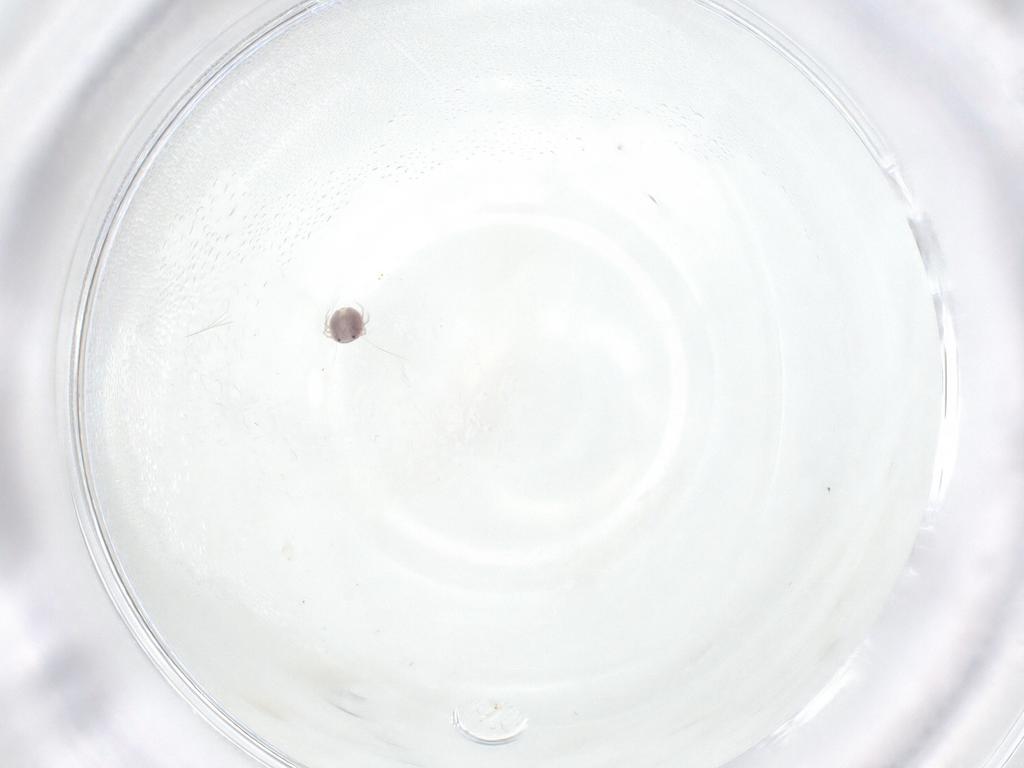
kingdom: Animalia
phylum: Arthropoda
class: Arachnida
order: Trombidiformes
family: Pionidae
